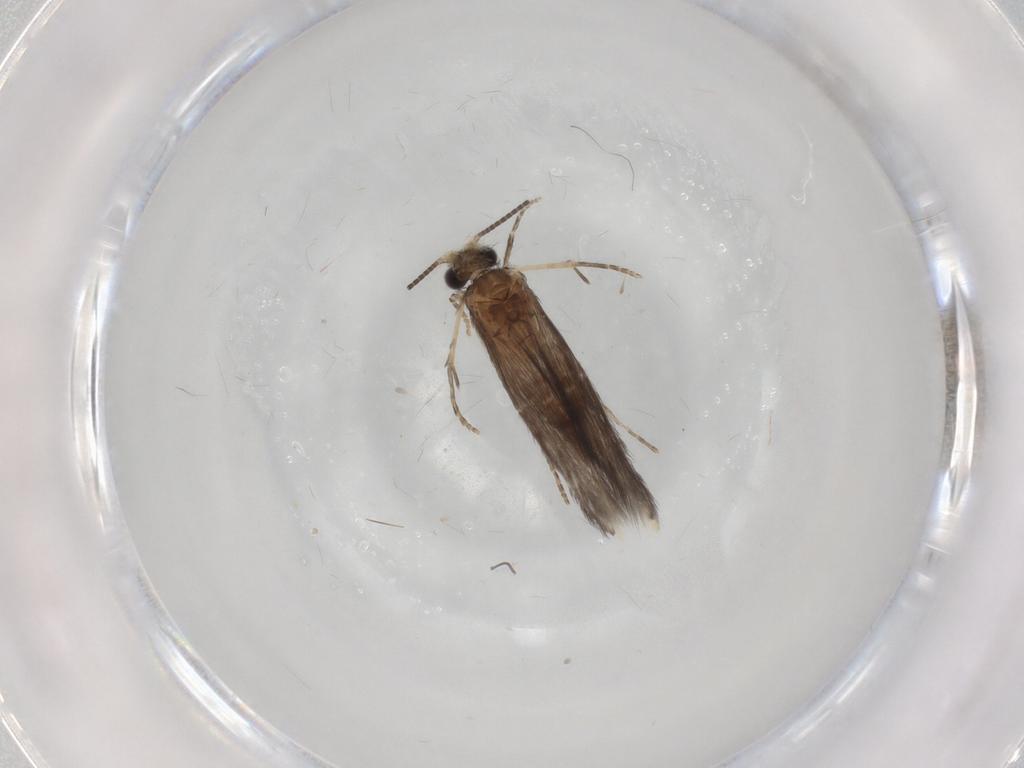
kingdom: Animalia
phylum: Arthropoda
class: Insecta
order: Trichoptera
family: Hydroptilidae
